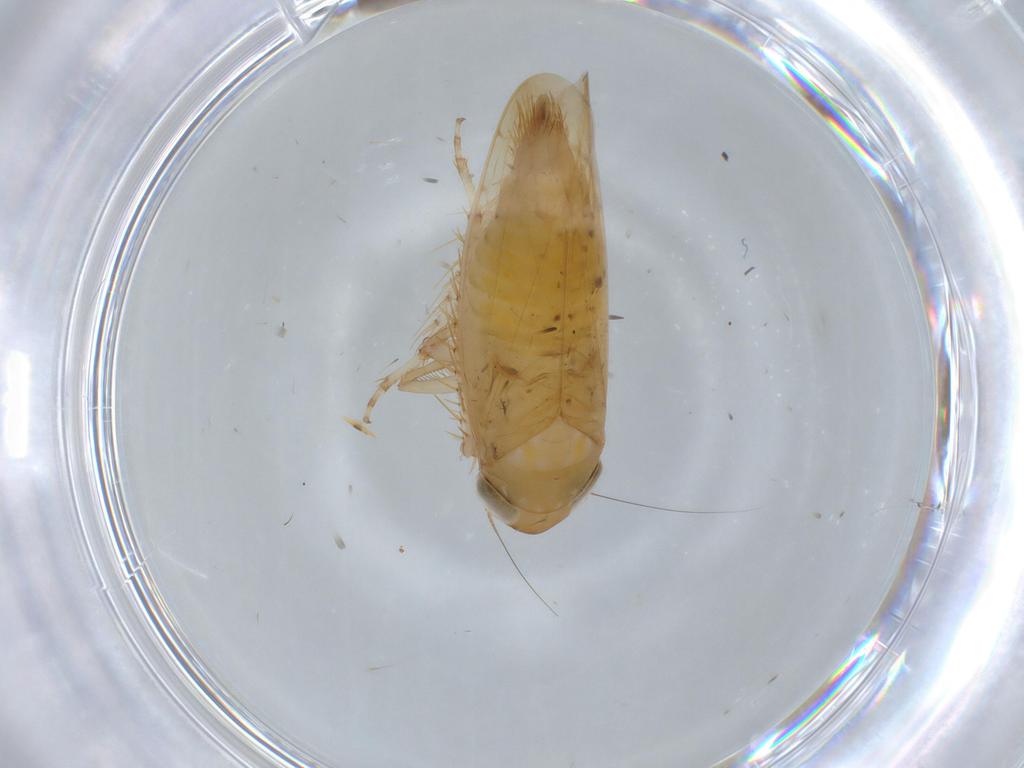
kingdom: Animalia
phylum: Arthropoda
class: Insecta
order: Hemiptera
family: Cicadellidae
